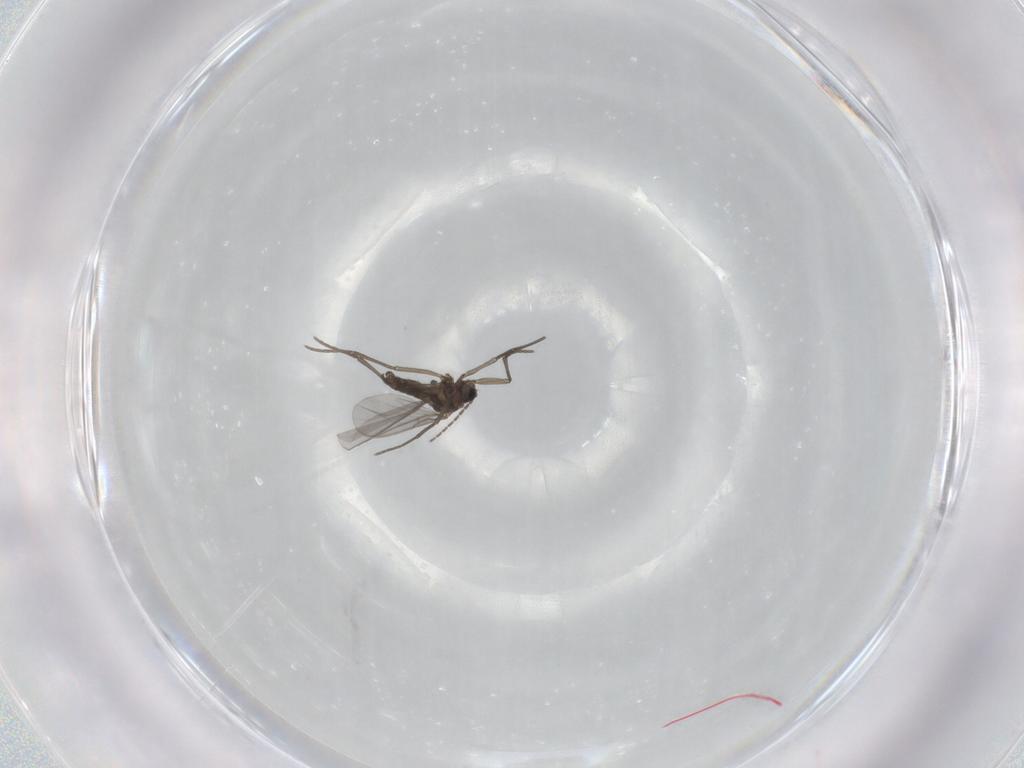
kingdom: Animalia
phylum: Arthropoda
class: Insecta
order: Diptera
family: Sciaridae
